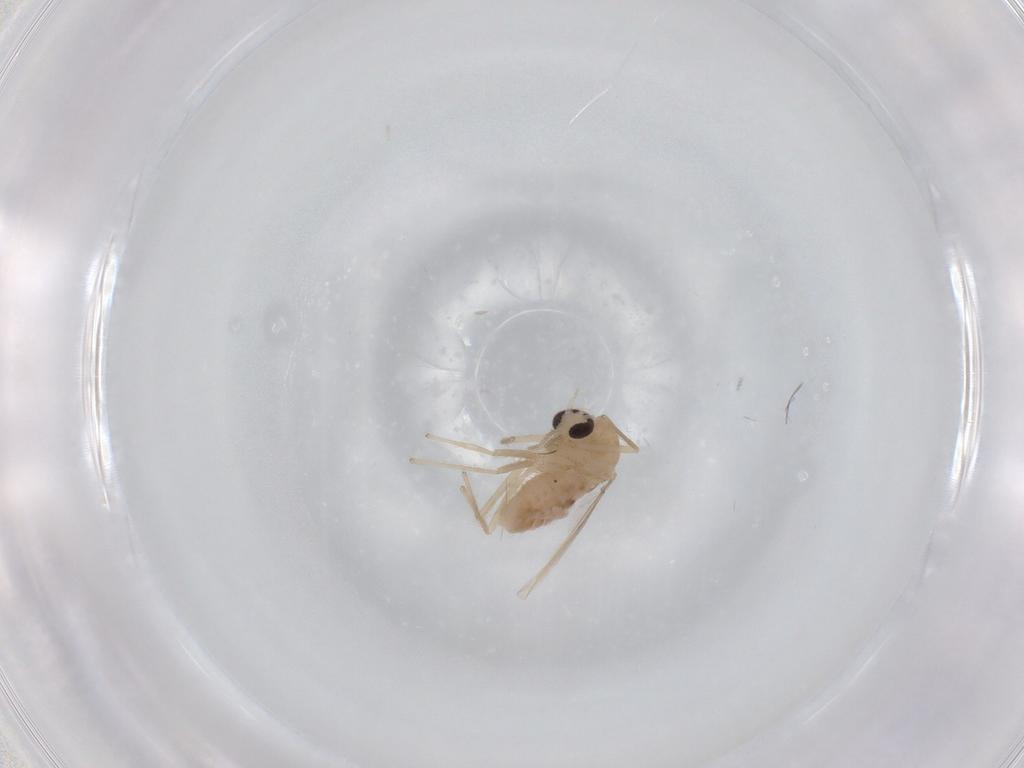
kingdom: Animalia
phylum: Arthropoda
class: Insecta
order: Diptera
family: Chironomidae
